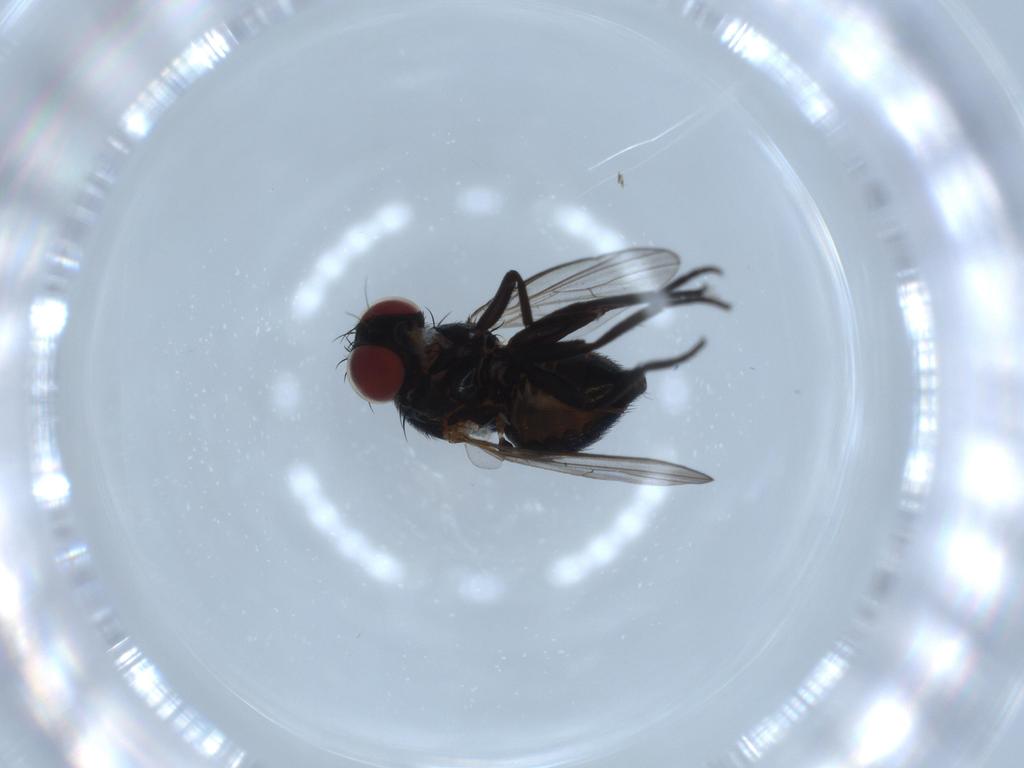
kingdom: Animalia
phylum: Arthropoda
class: Insecta
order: Diptera
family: Agromyzidae
